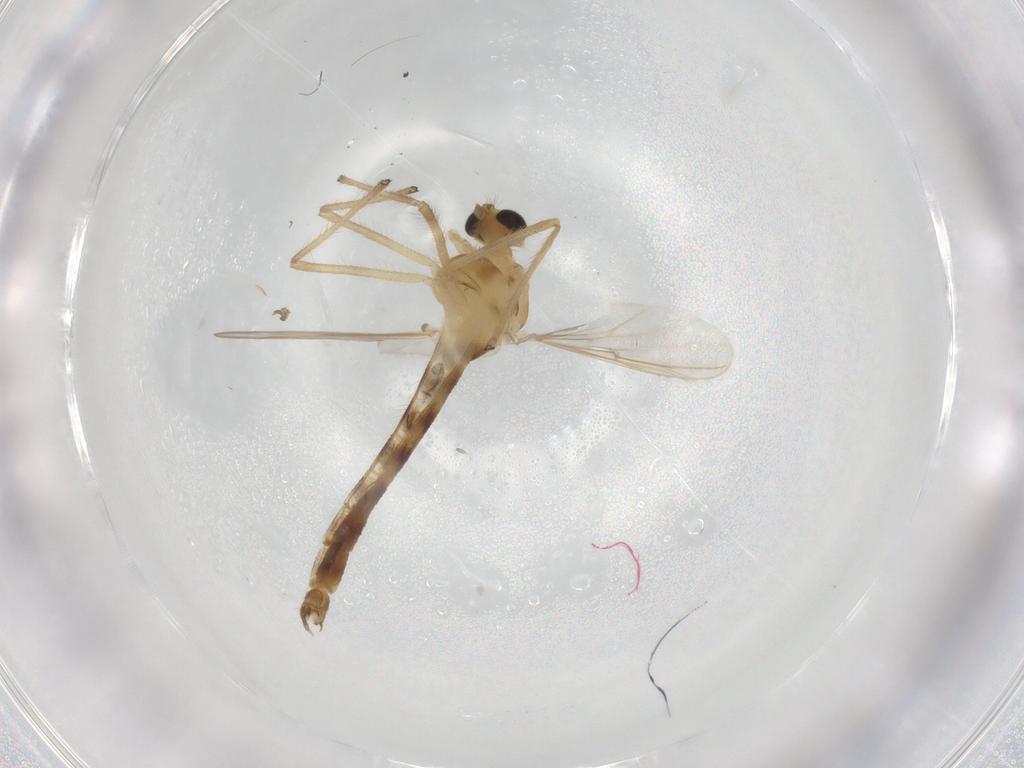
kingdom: Animalia
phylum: Arthropoda
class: Insecta
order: Diptera
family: Chironomidae
